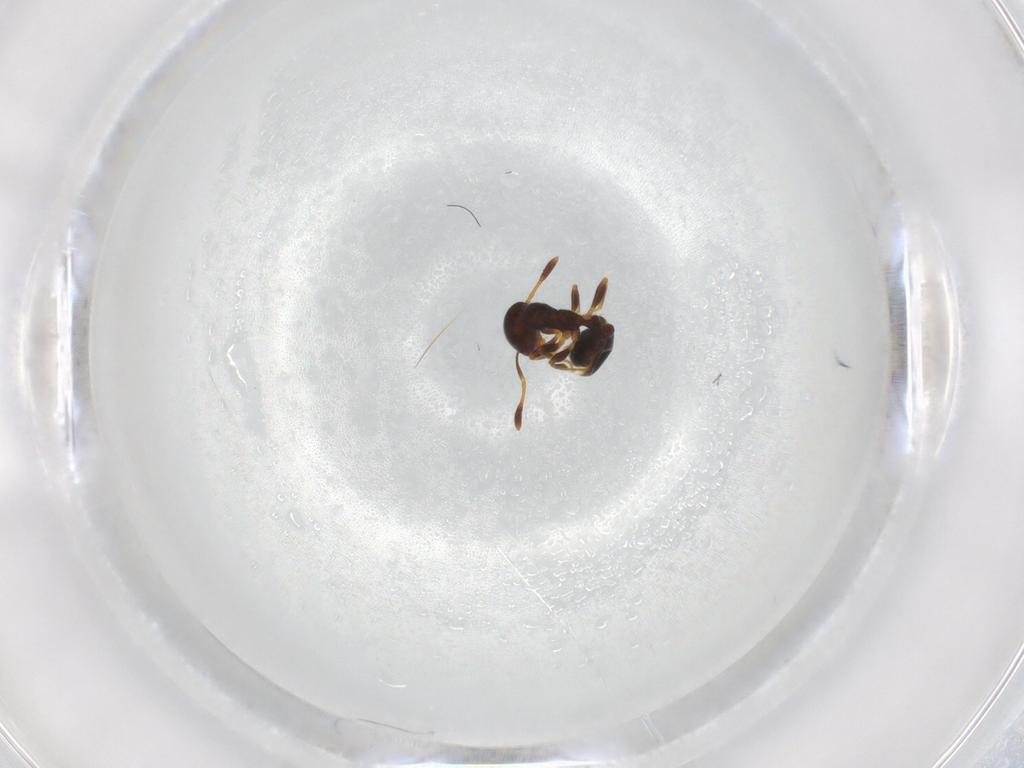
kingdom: Animalia
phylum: Arthropoda
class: Insecta
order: Hymenoptera
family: Formicidae
